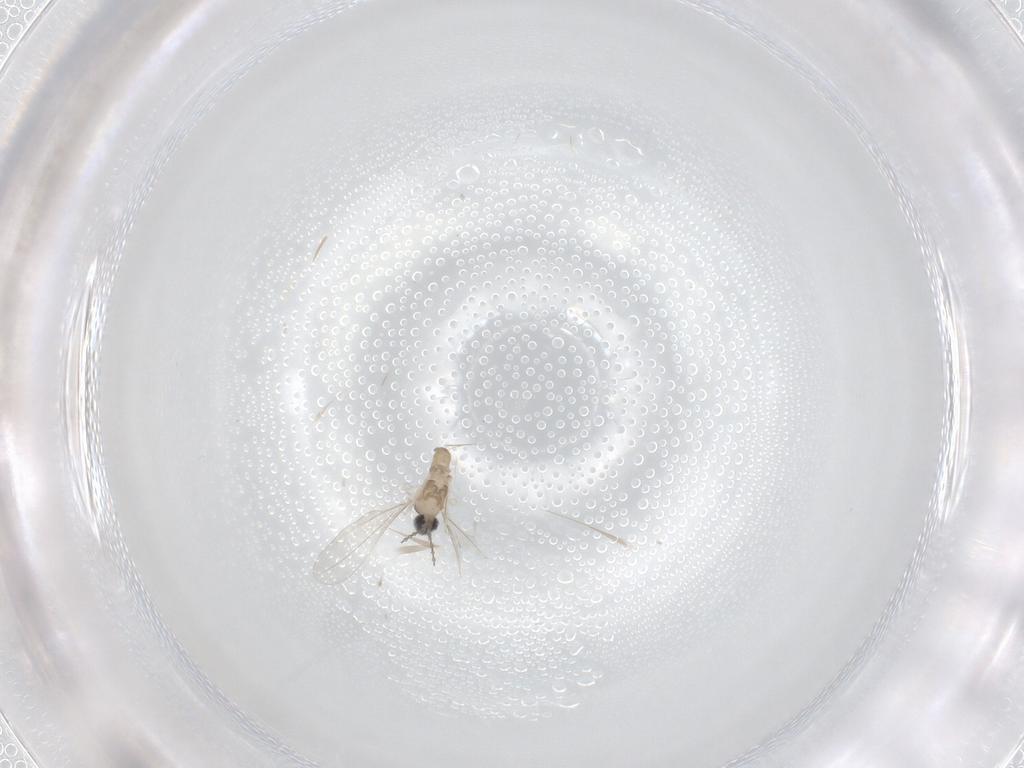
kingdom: Animalia
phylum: Arthropoda
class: Insecta
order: Diptera
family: Cecidomyiidae
